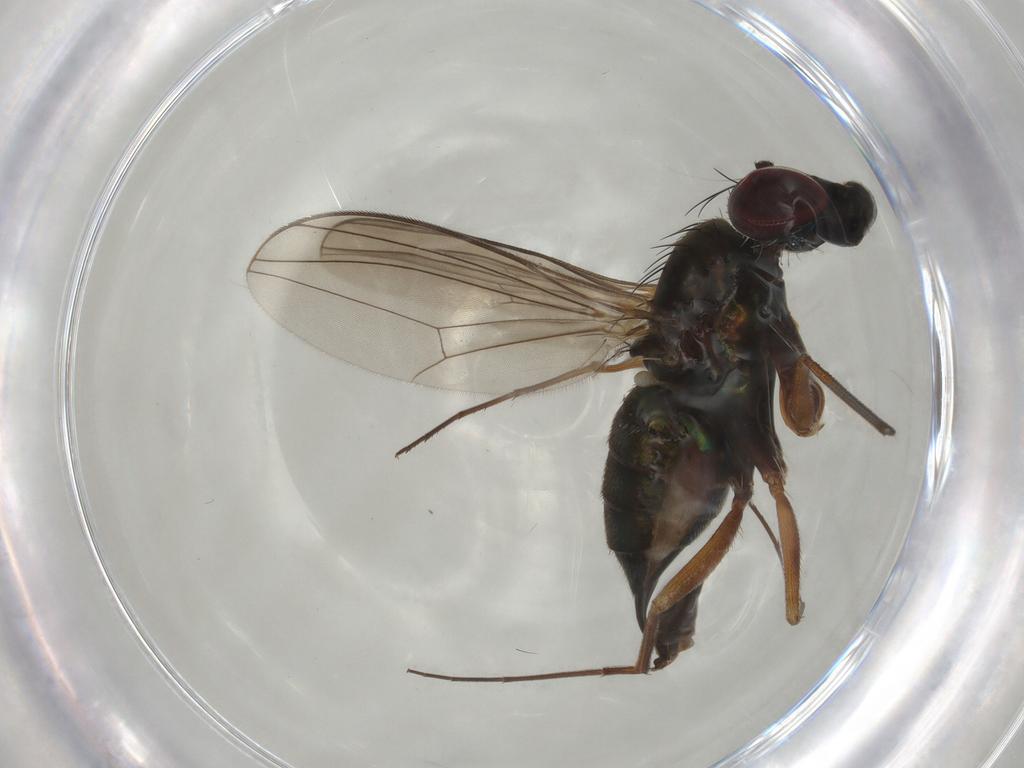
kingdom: Animalia
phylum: Arthropoda
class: Insecta
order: Diptera
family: Dolichopodidae
